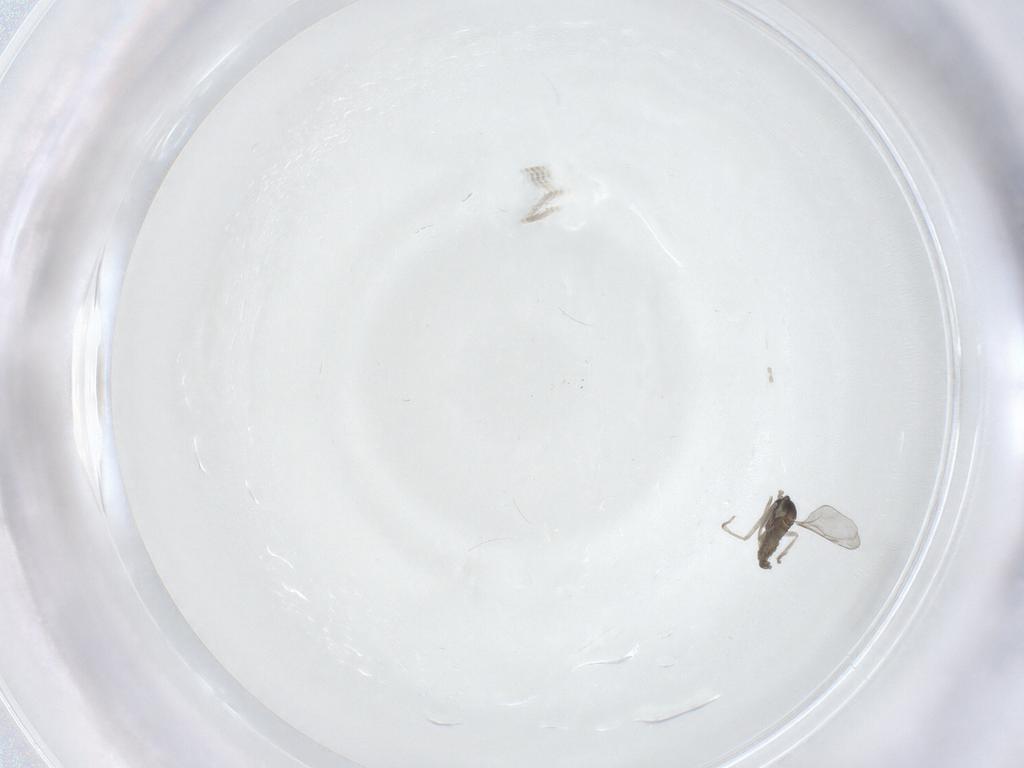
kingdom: Animalia
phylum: Arthropoda
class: Insecta
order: Diptera
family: Cecidomyiidae
